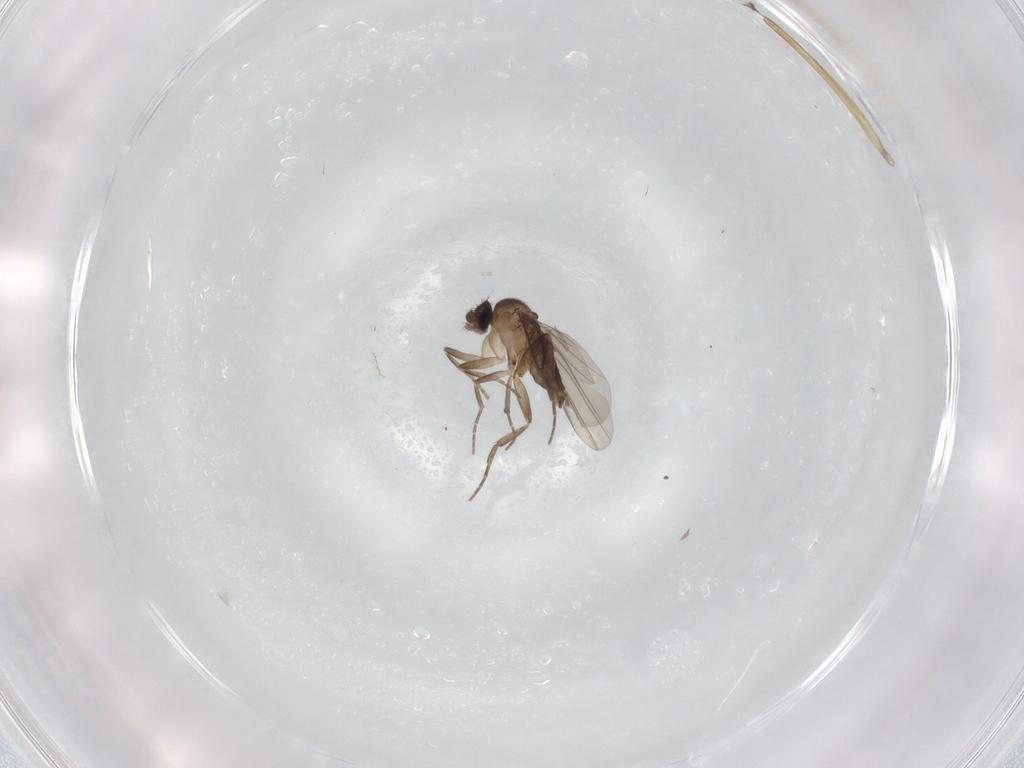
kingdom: Animalia
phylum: Arthropoda
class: Insecta
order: Diptera
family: Phoridae
